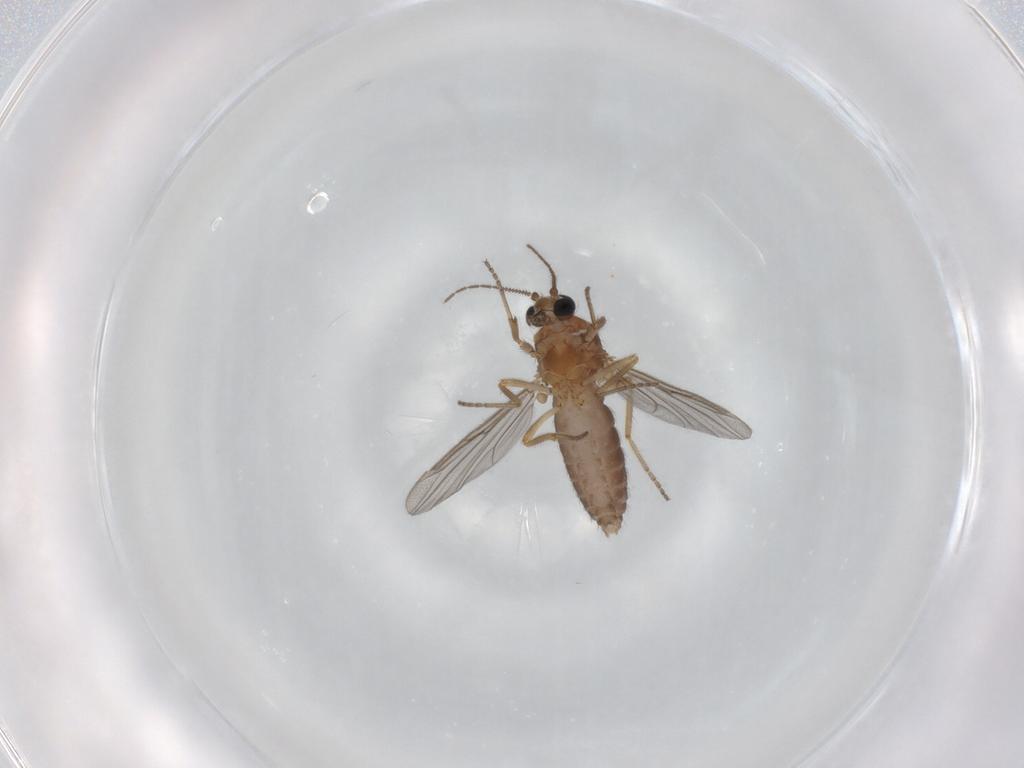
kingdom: Animalia
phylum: Arthropoda
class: Insecta
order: Diptera
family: Ceratopogonidae
